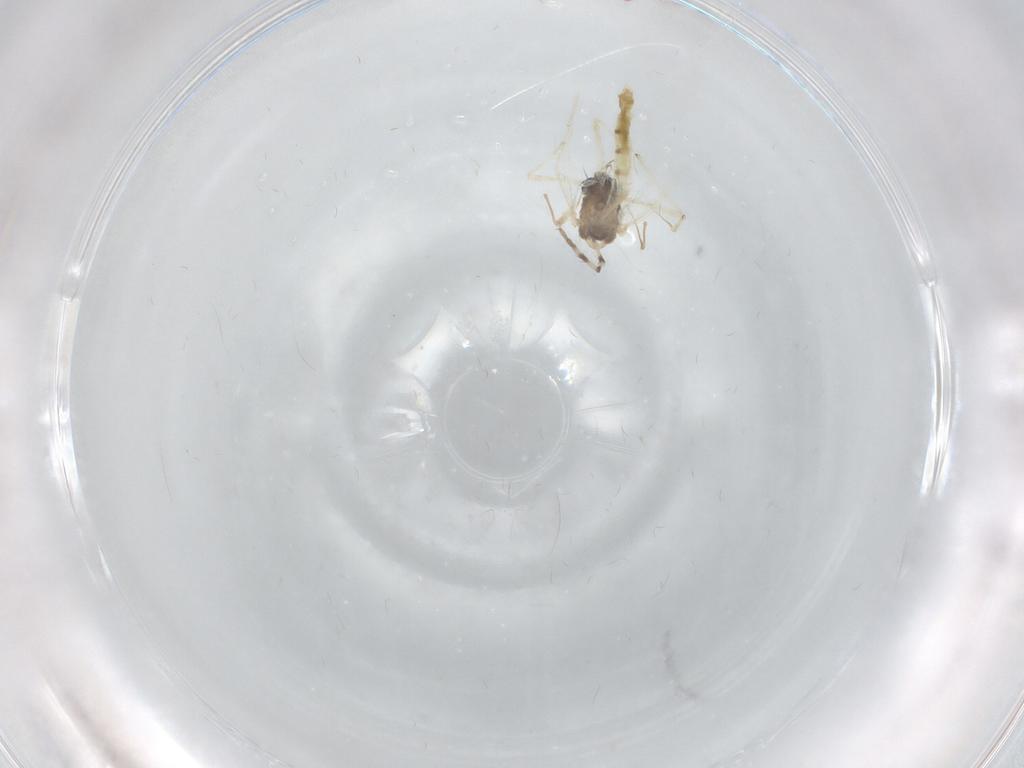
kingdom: Animalia
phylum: Arthropoda
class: Insecta
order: Diptera
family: Chironomidae
